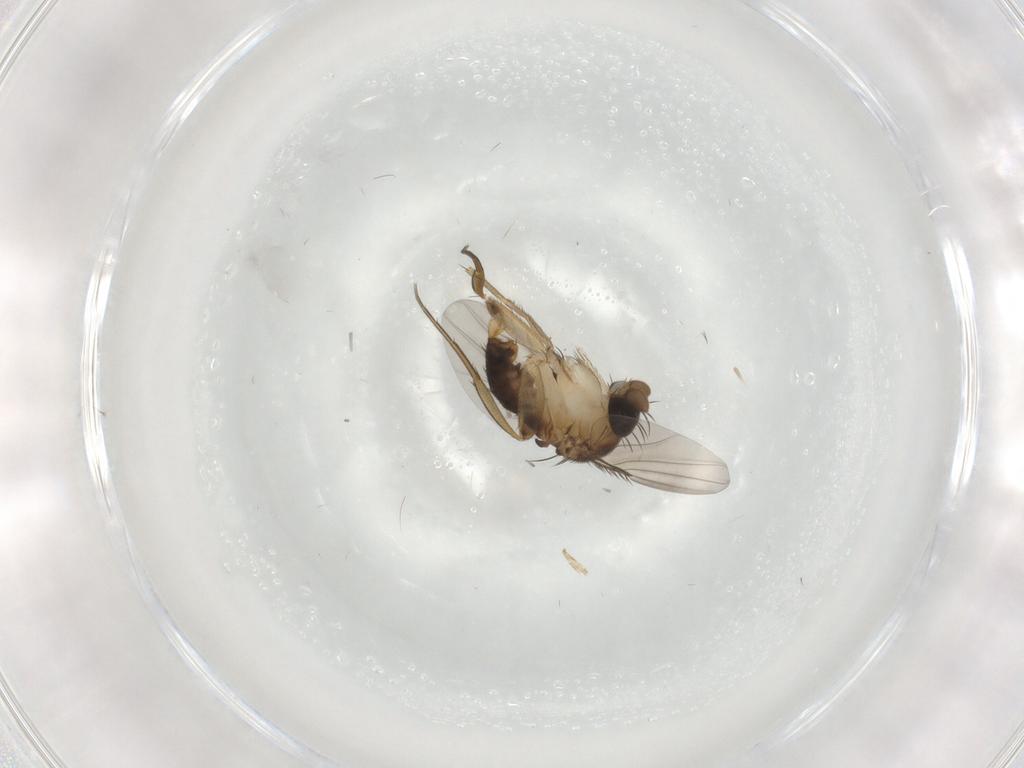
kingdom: Animalia
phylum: Arthropoda
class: Insecta
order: Diptera
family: Phoridae
